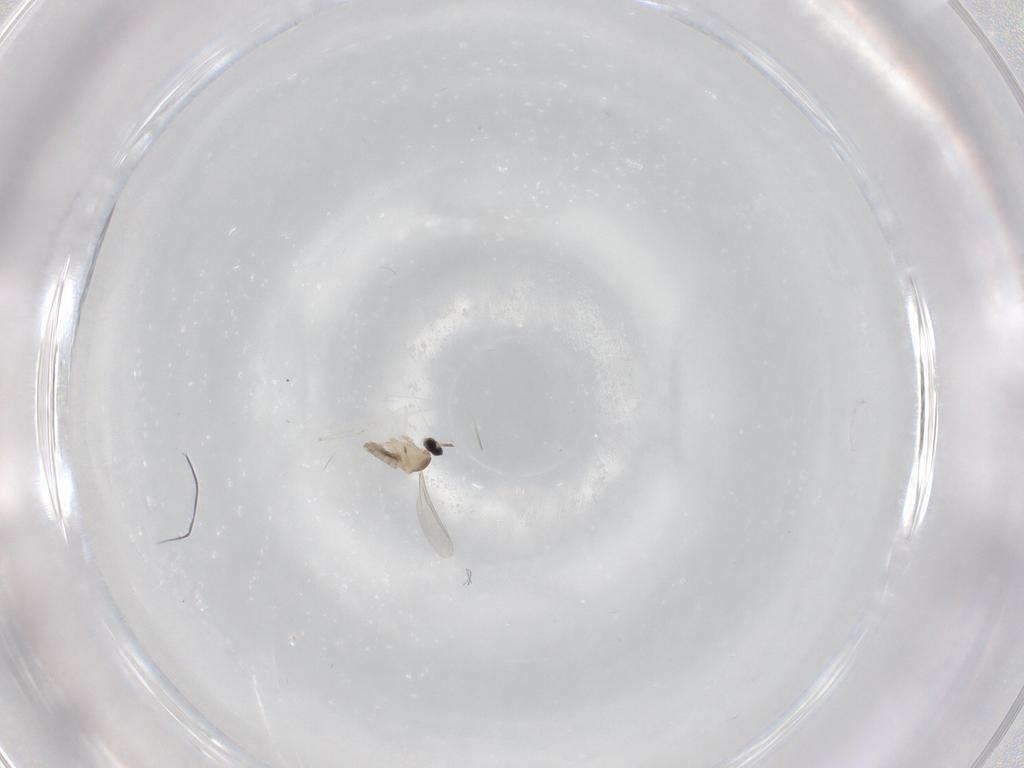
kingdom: Animalia
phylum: Arthropoda
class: Insecta
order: Diptera
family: Cecidomyiidae
